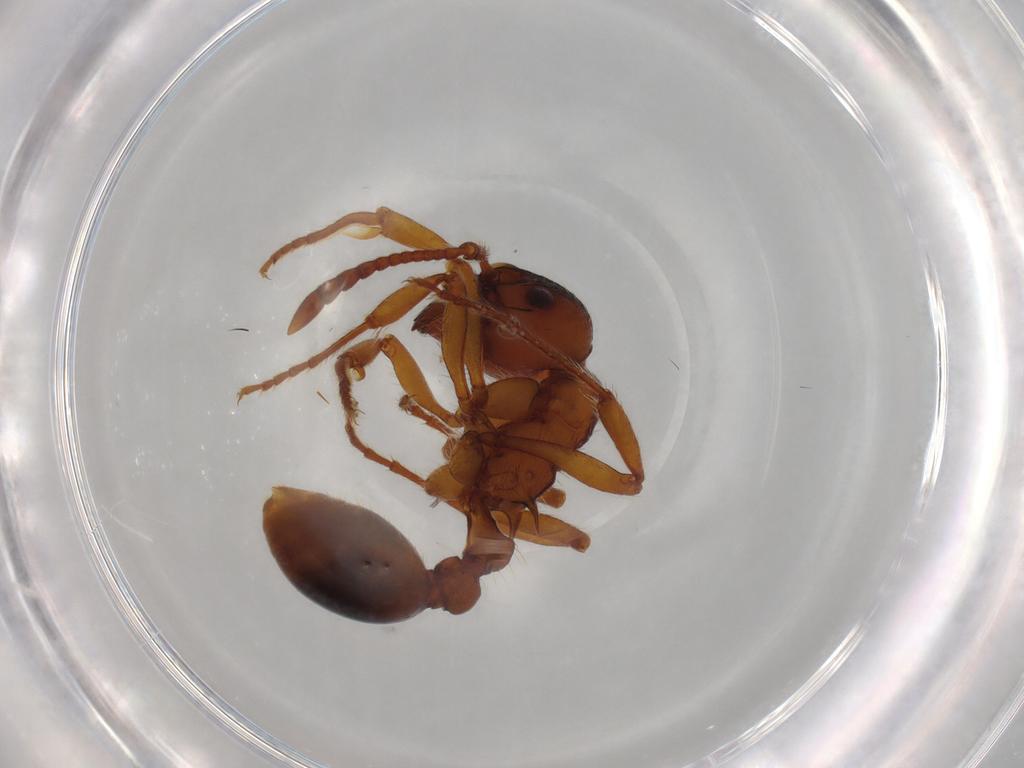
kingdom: Animalia
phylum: Arthropoda
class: Insecta
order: Hymenoptera
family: Formicidae
